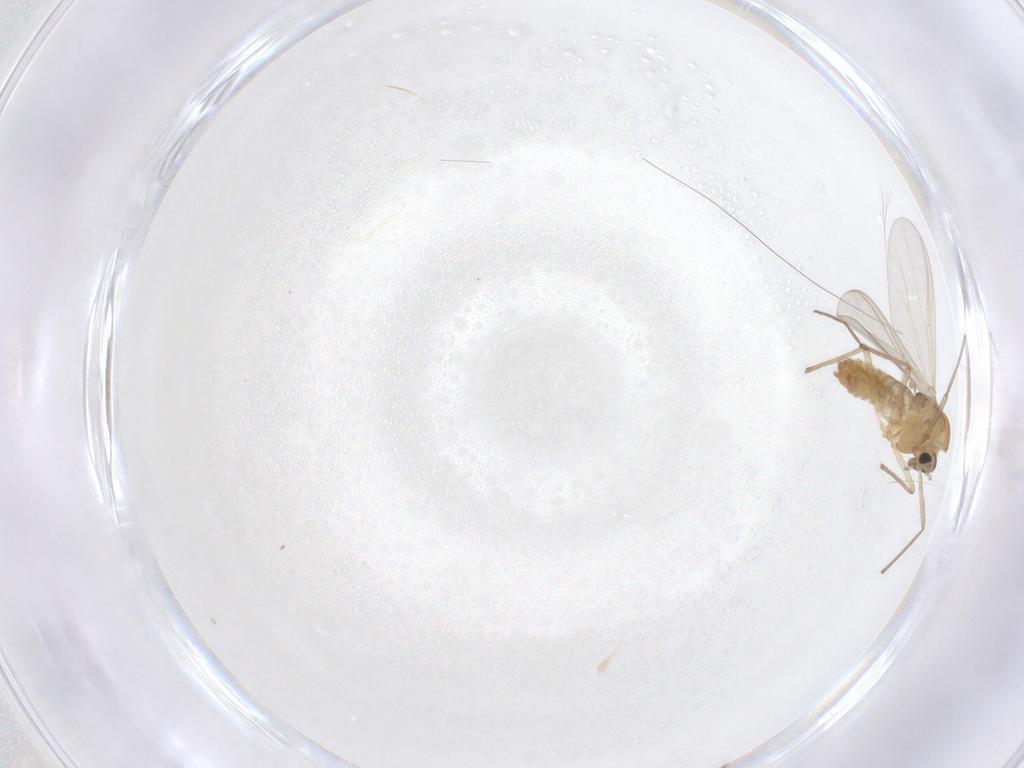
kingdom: Animalia
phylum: Arthropoda
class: Insecta
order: Diptera
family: Chironomidae
